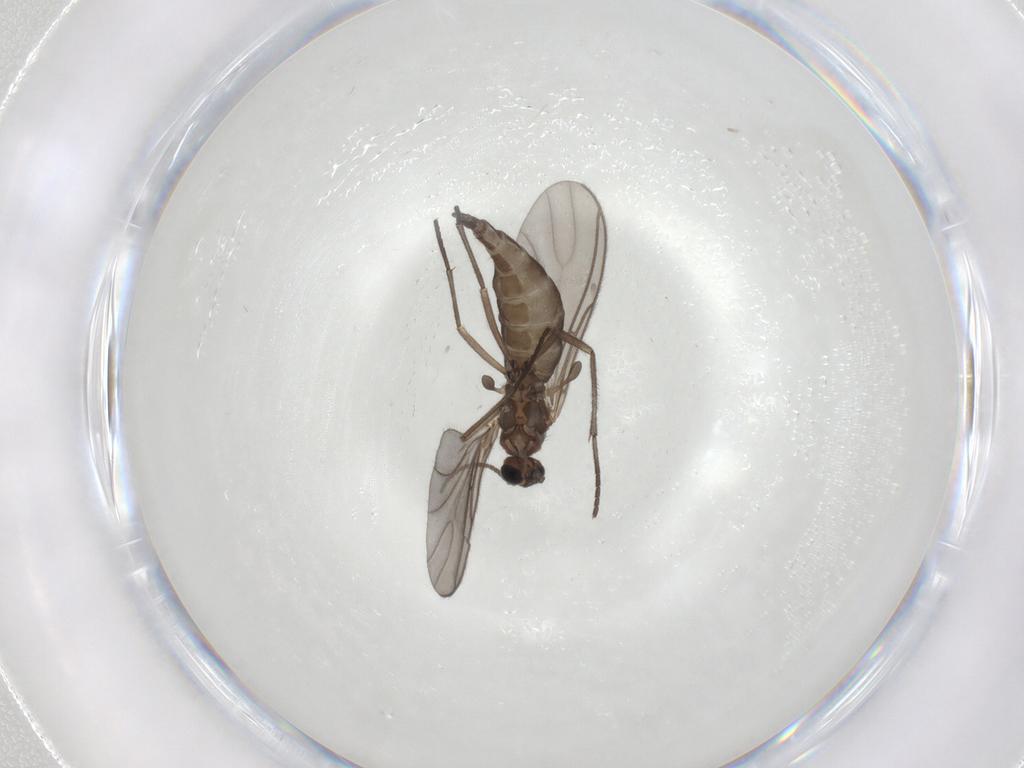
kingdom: Animalia
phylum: Arthropoda
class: Insecta
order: Diptera
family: Sciaridae
